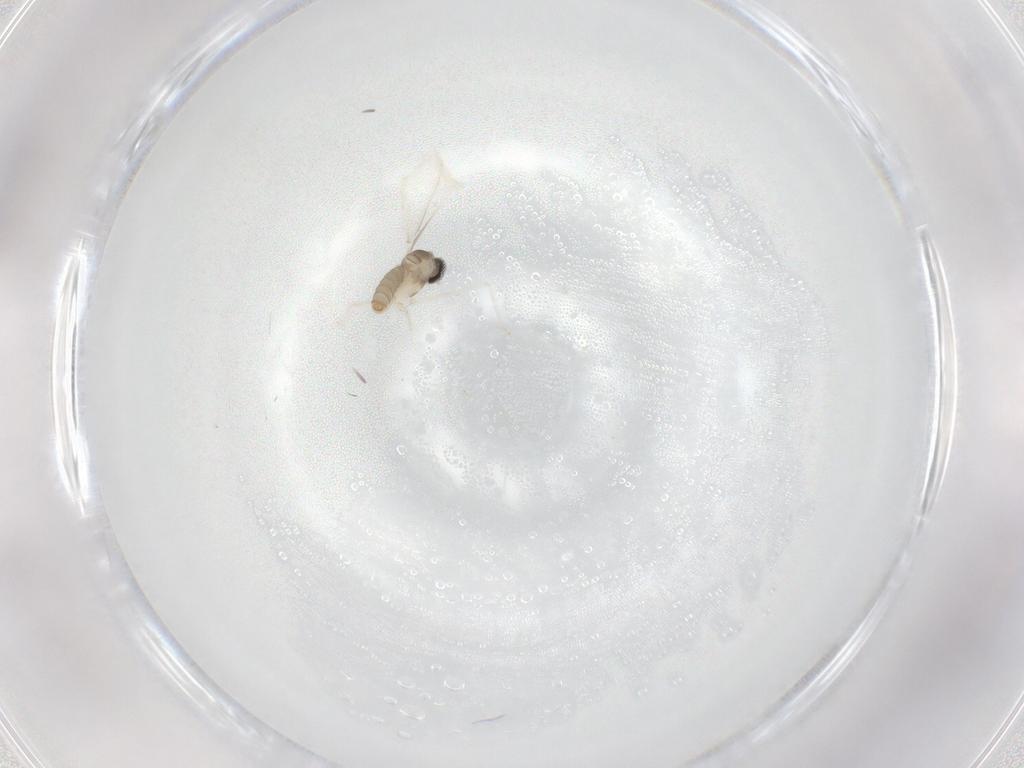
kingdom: Animalia
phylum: Arthropoda
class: Insecta
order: Diptera
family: Cecidomyiidae
